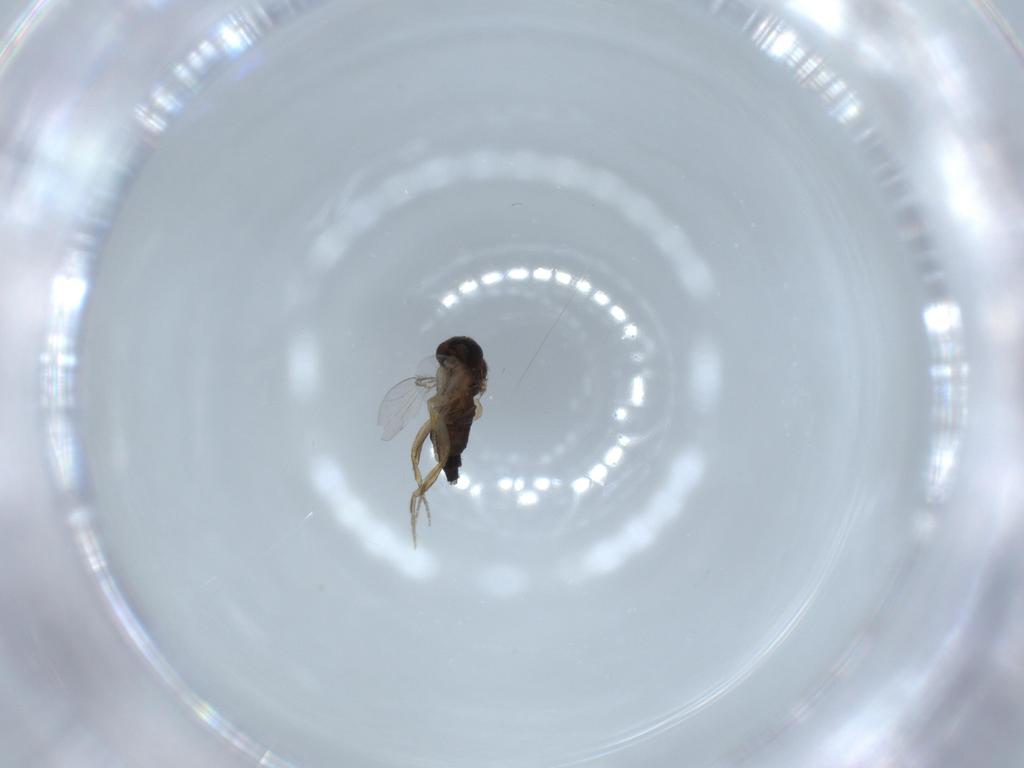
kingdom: Animalia
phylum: Arthropoda
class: Insecta
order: Diptera
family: Phoridae
